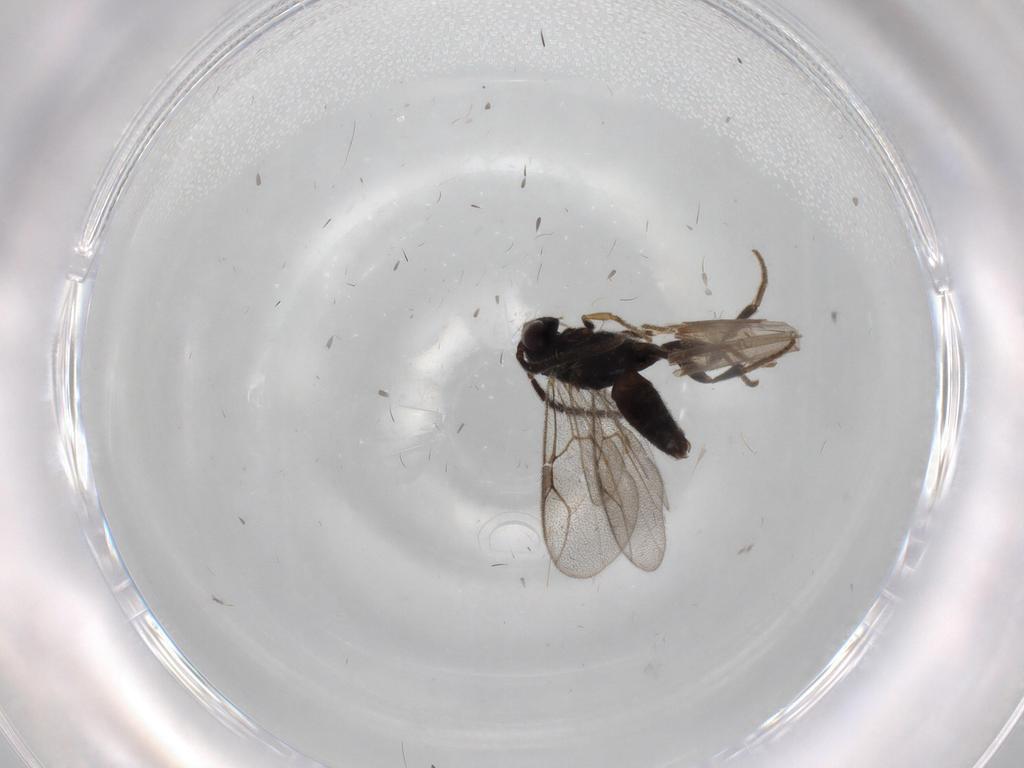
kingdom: Animalia
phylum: Arthropoda
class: Insecta
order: Hymenoptera
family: Dryinidae
